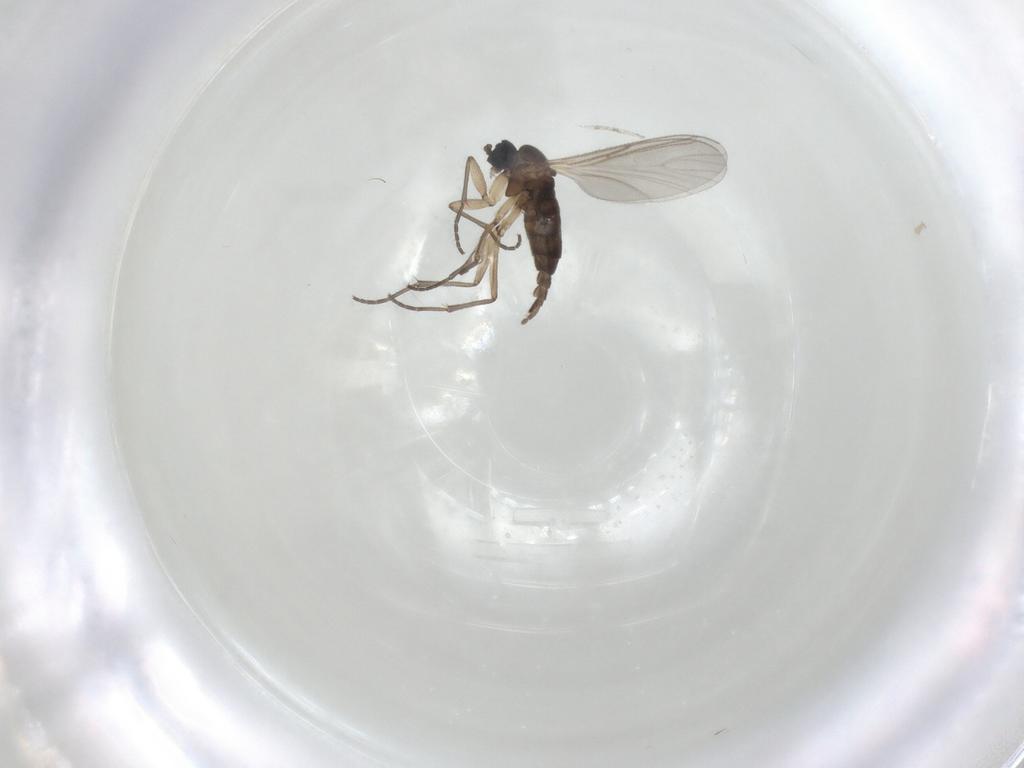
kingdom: Animalia
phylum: Arthropoda
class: Insecta
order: Diptera
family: Sciaridae
